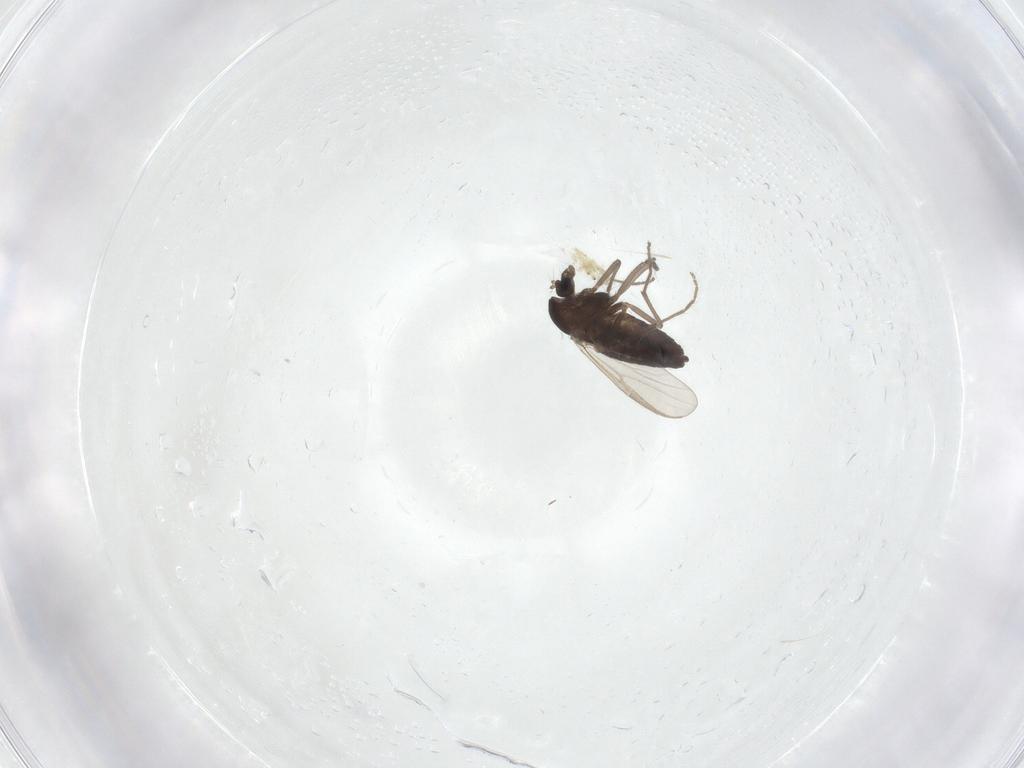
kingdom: Animalia
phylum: Arthropoda
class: Insecta
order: Diptera
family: Chironomidae
